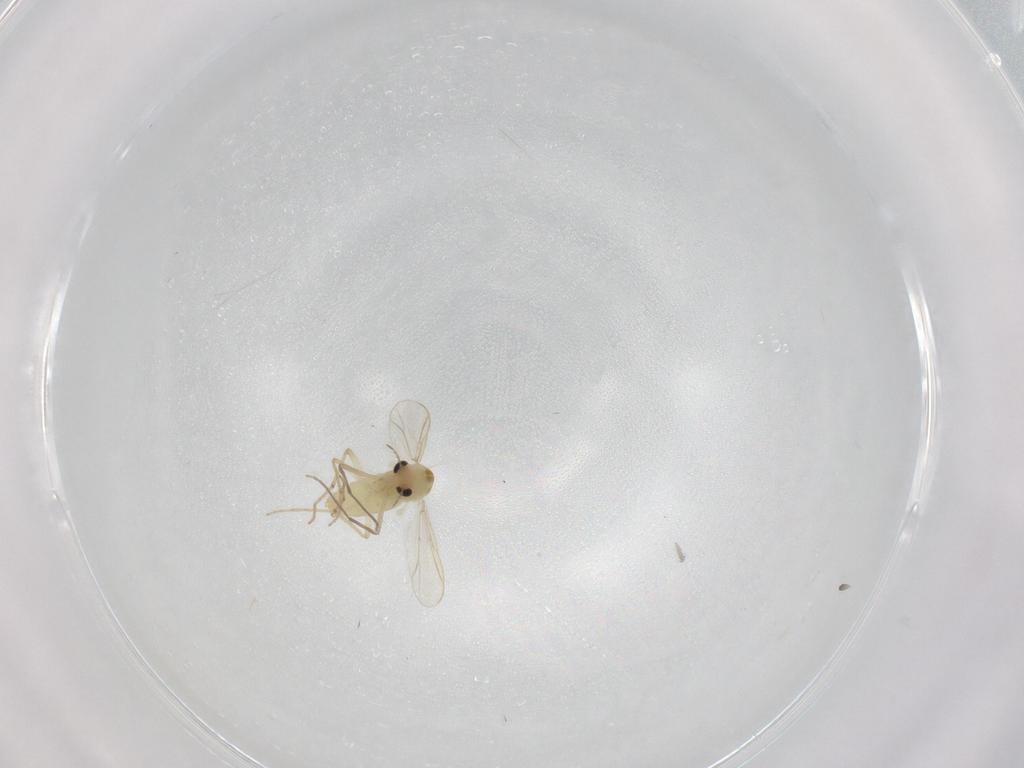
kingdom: Animalia
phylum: Arthropoda
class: Insecta
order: Diptera
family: Chironomidae
